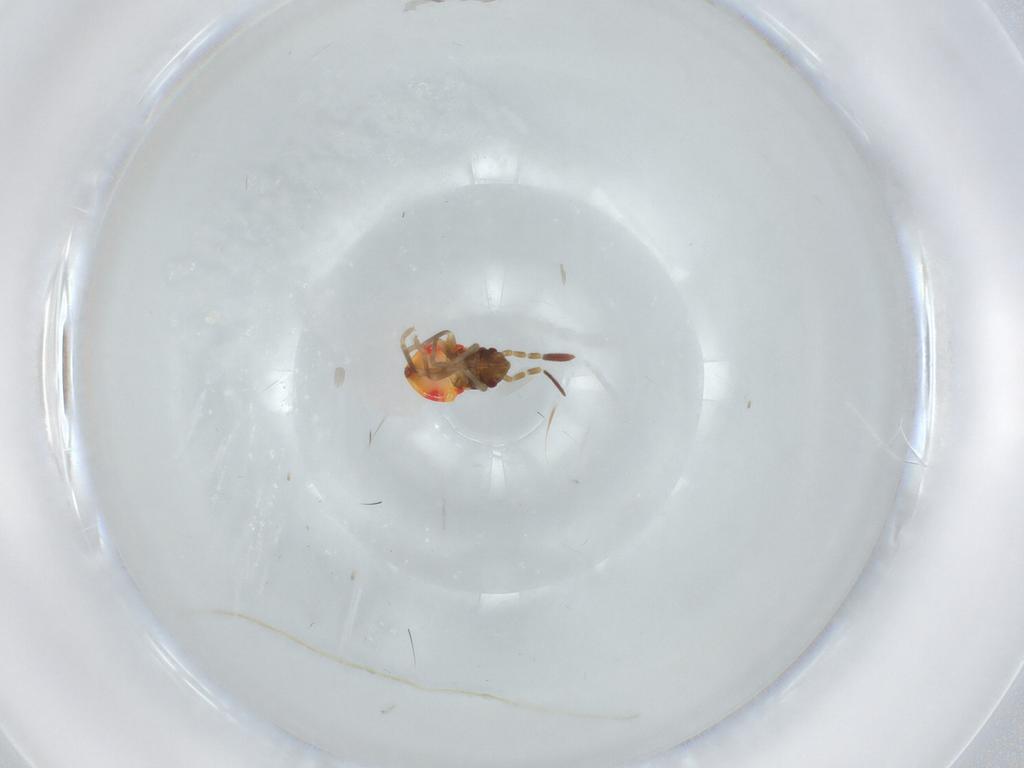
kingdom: Animalia
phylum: Arthropoda
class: Insecta
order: Hemiptera
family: Rhyparochromidae
